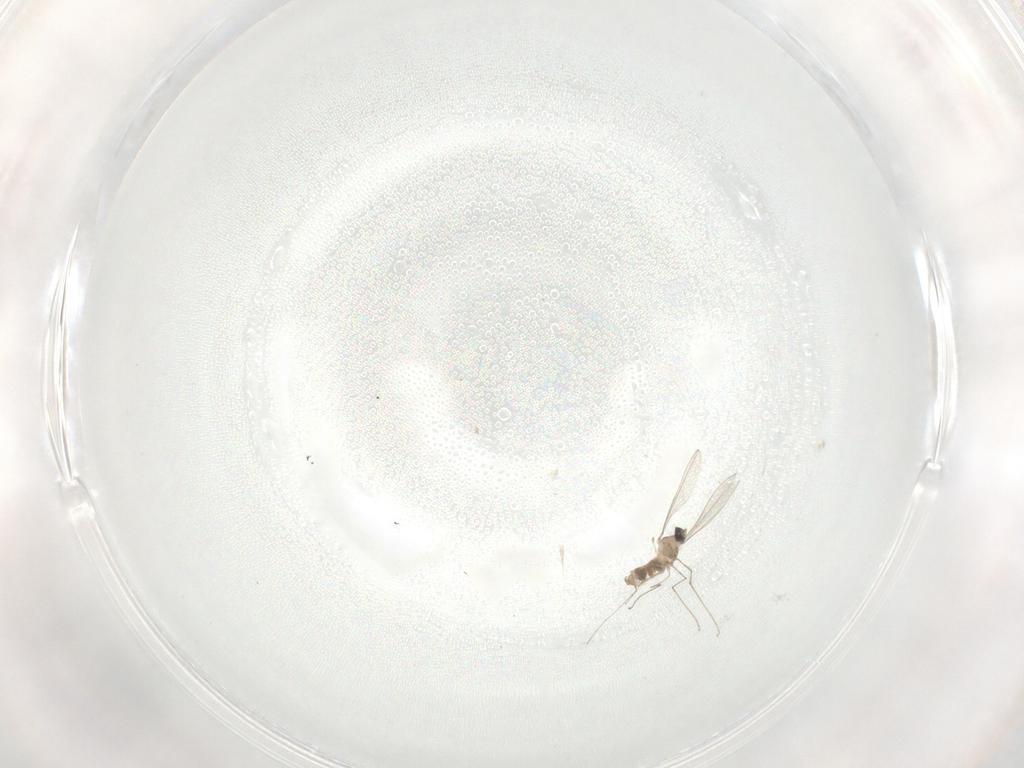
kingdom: Animalia
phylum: Arthropoda
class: Insecta
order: Diptera
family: Cecidomyiidae
